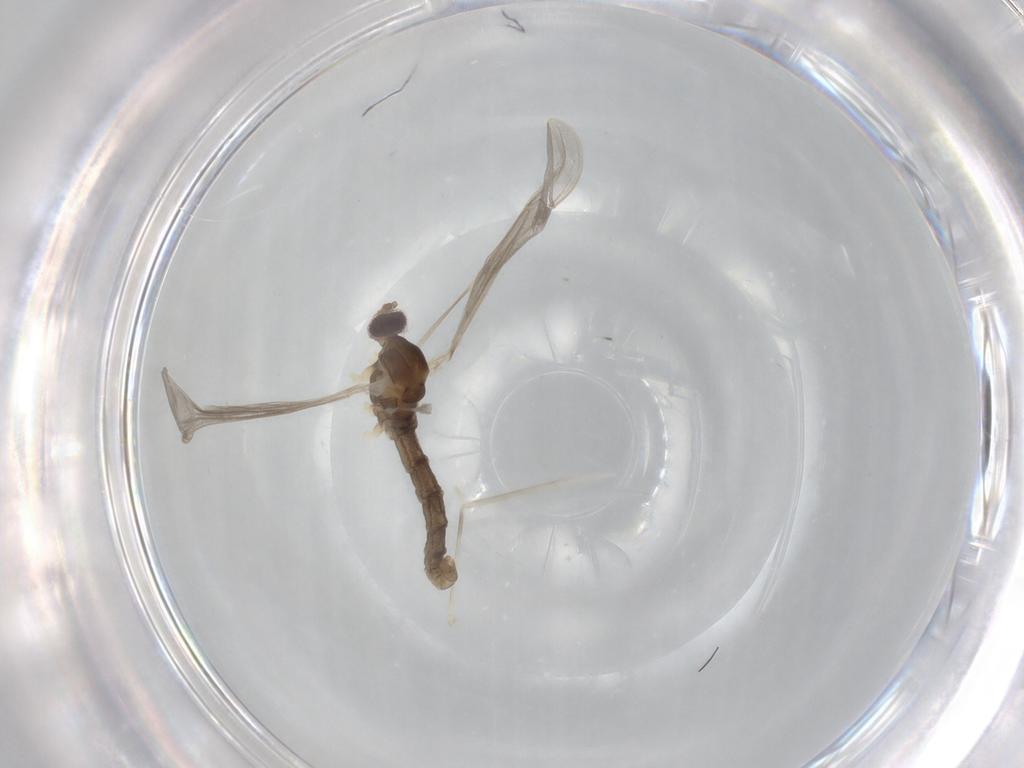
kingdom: Animalia
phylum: Arthropoda
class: Insecta
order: Diptera
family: Cecidomyiidae
